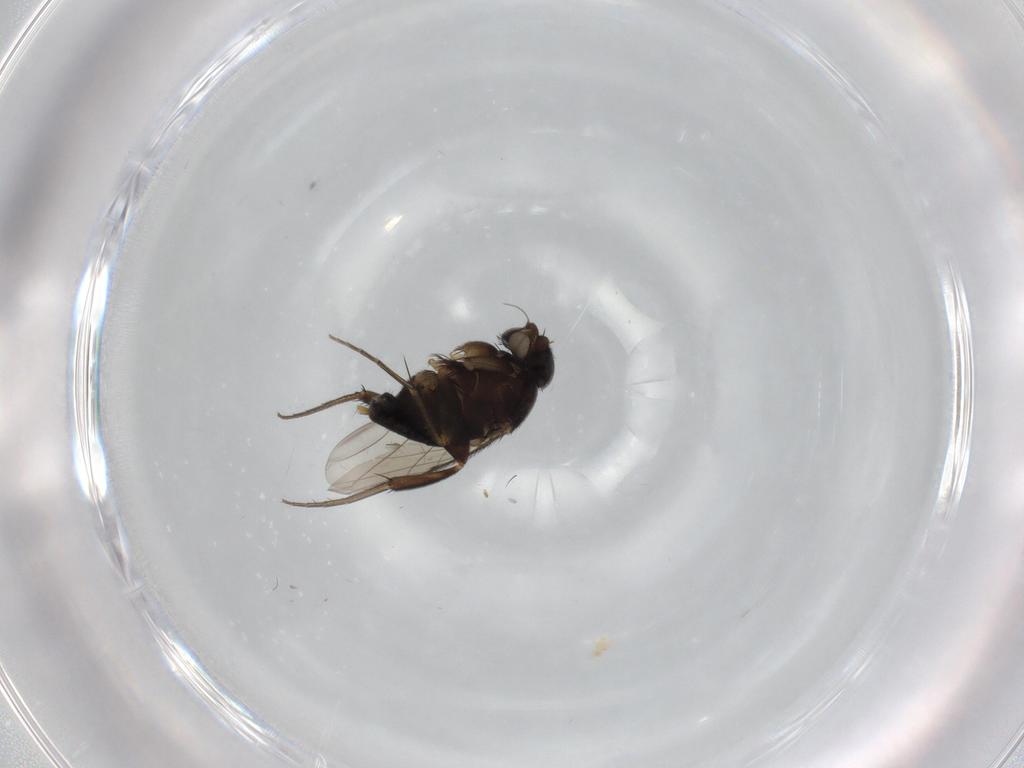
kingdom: Animalia
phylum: Arthropoda
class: Insecta
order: Diptera
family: Phoridae
